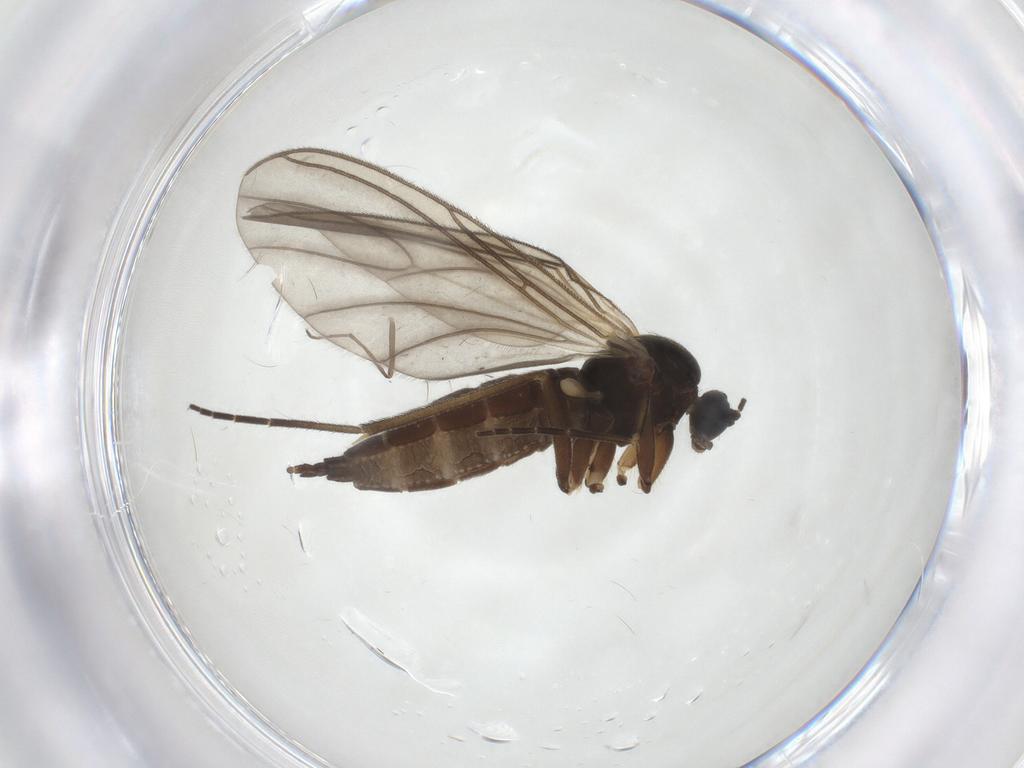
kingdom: Animalia
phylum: Arthropoda
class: Insecta
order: Diptera
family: Sciaridae
